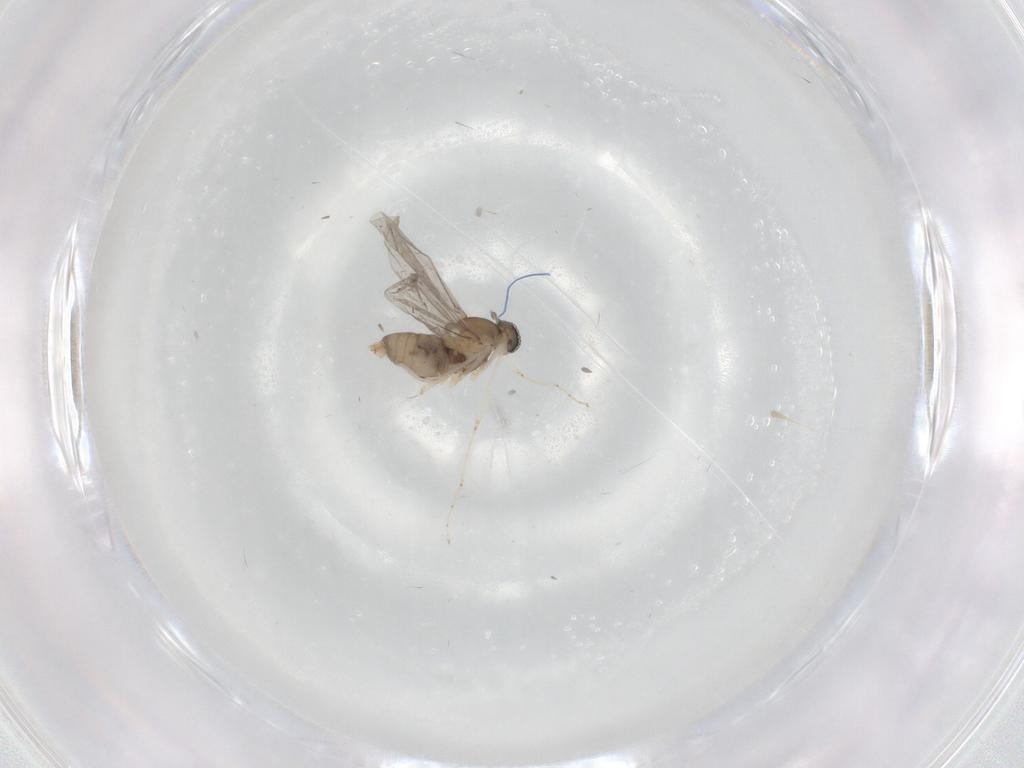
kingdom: Animalia
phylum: Arthropoda
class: Insecta
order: Diptera
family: Cecidomyiidae
